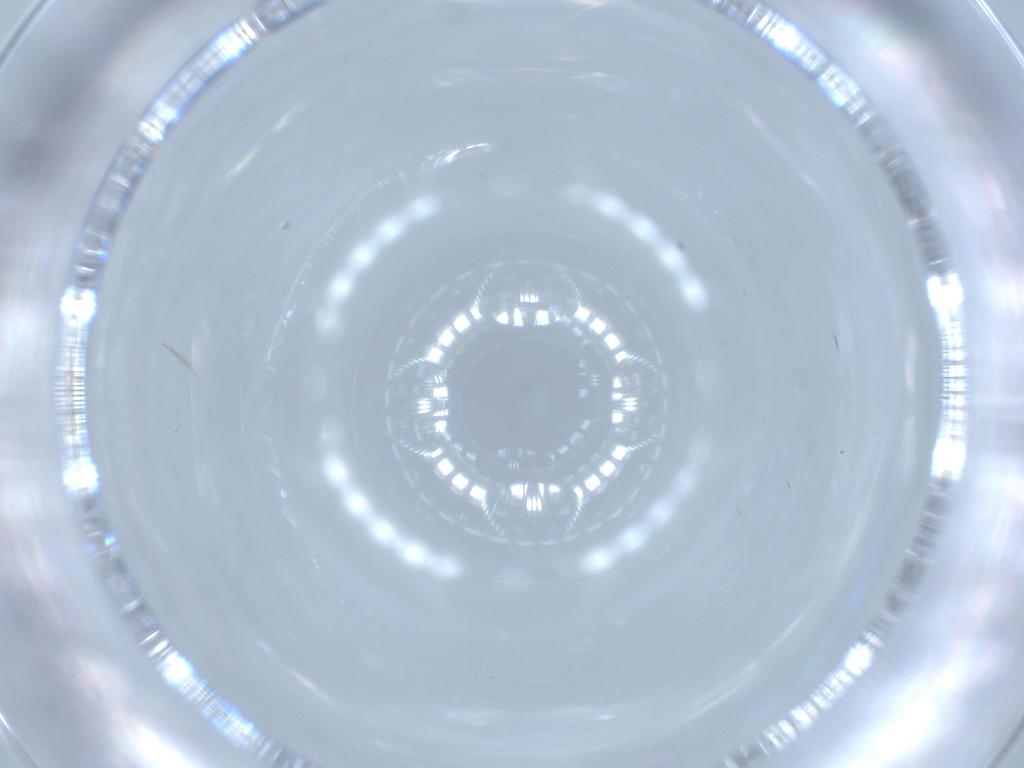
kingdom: Animalia
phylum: Arthropoda
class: Insecta
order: Diptera
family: Cecidomyiidae
